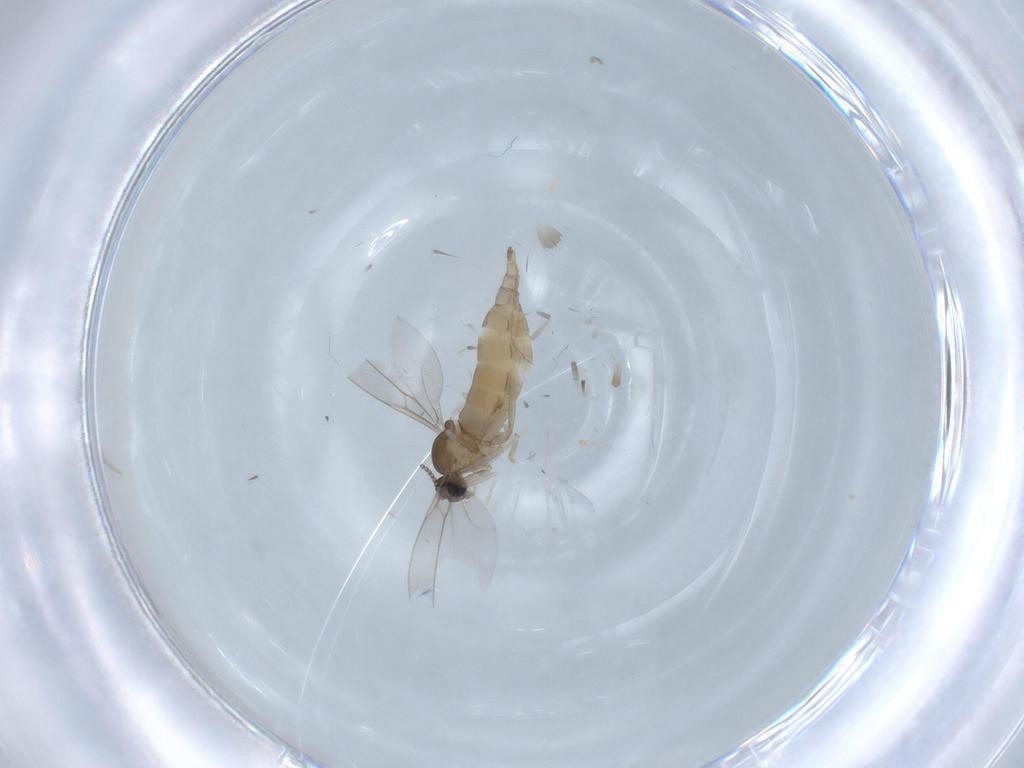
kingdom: Animalia
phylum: Arthropoda
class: Insecta
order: Diptera
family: Cecidomyiidae
